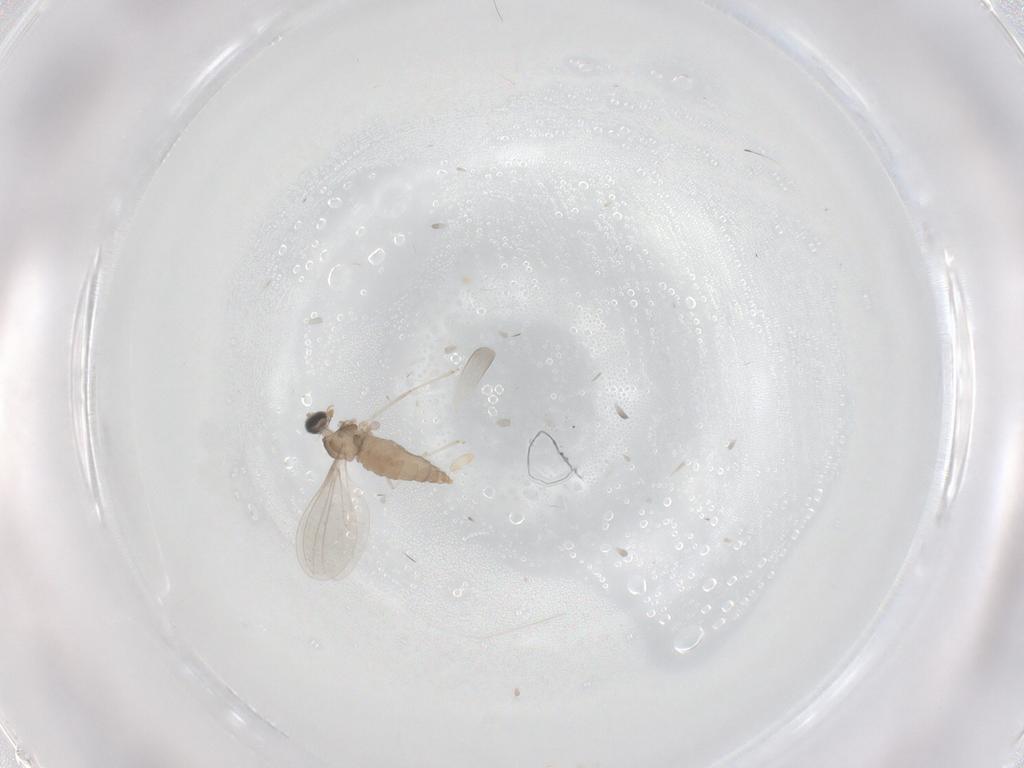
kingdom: Animalia
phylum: Arthropoda
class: Insecta
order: Diptera
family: Cecidomyiidae
